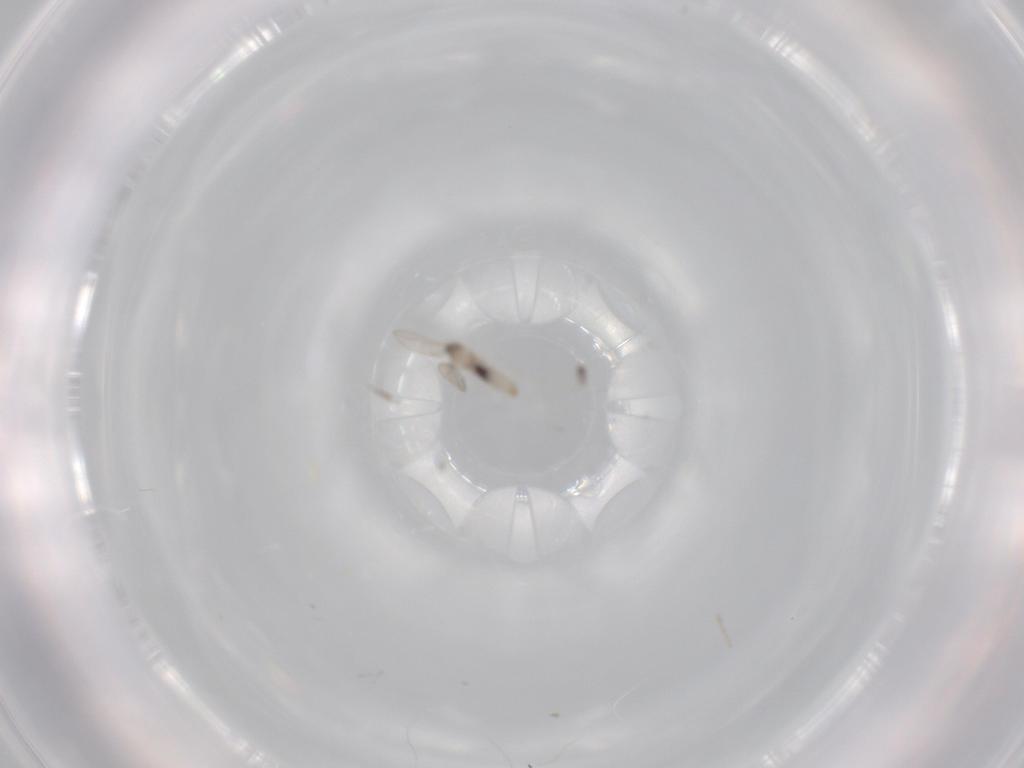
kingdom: Animalia
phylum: Arthropoda
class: Insecta
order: Diptera
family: Cecidomyiidae
